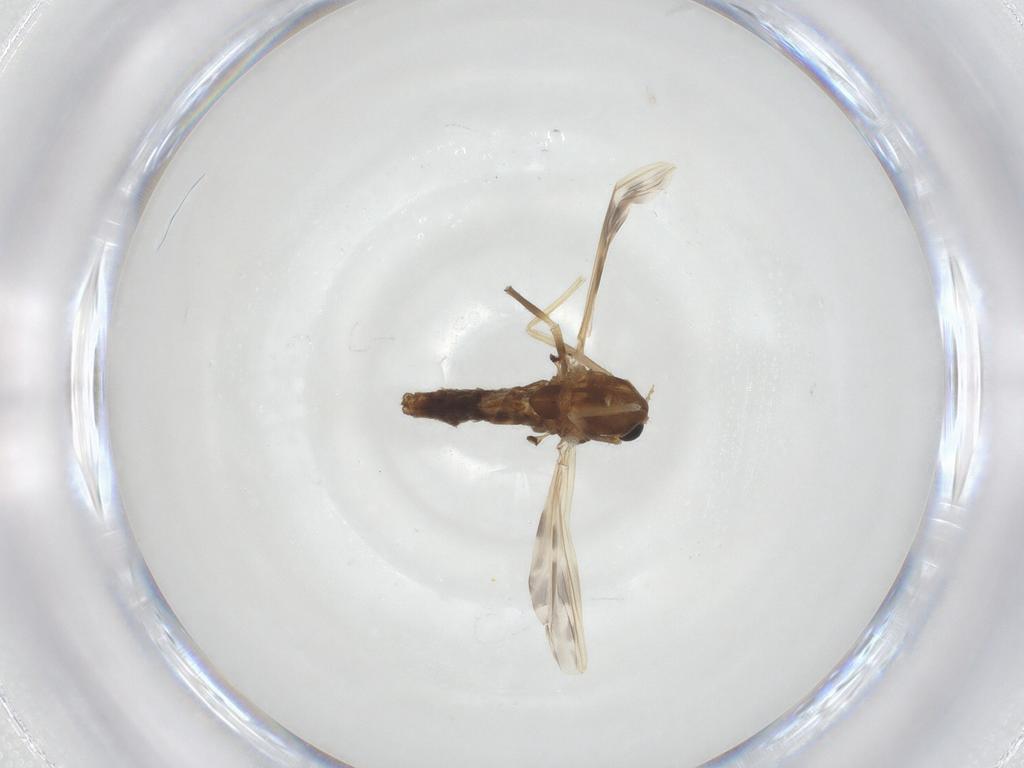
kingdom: Animalia
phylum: Arthropoda
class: Insecta
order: Diptera
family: Chironomidae
